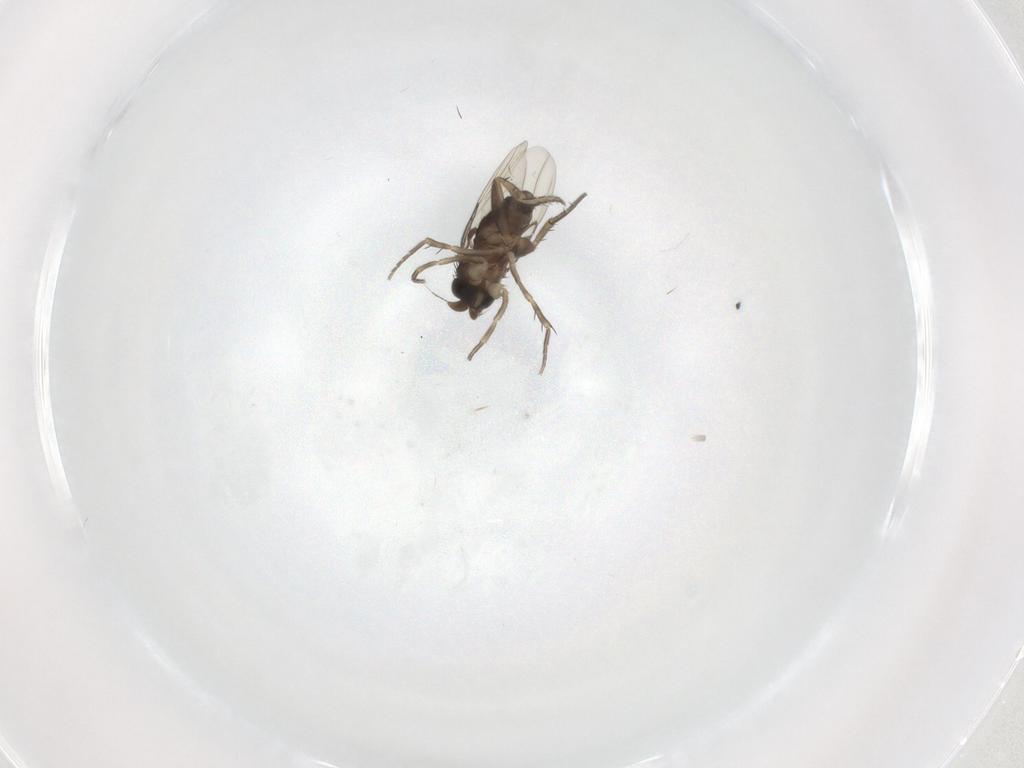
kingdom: Animalia
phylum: Arthropoda
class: Insecta
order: Diptera
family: Phoridae
